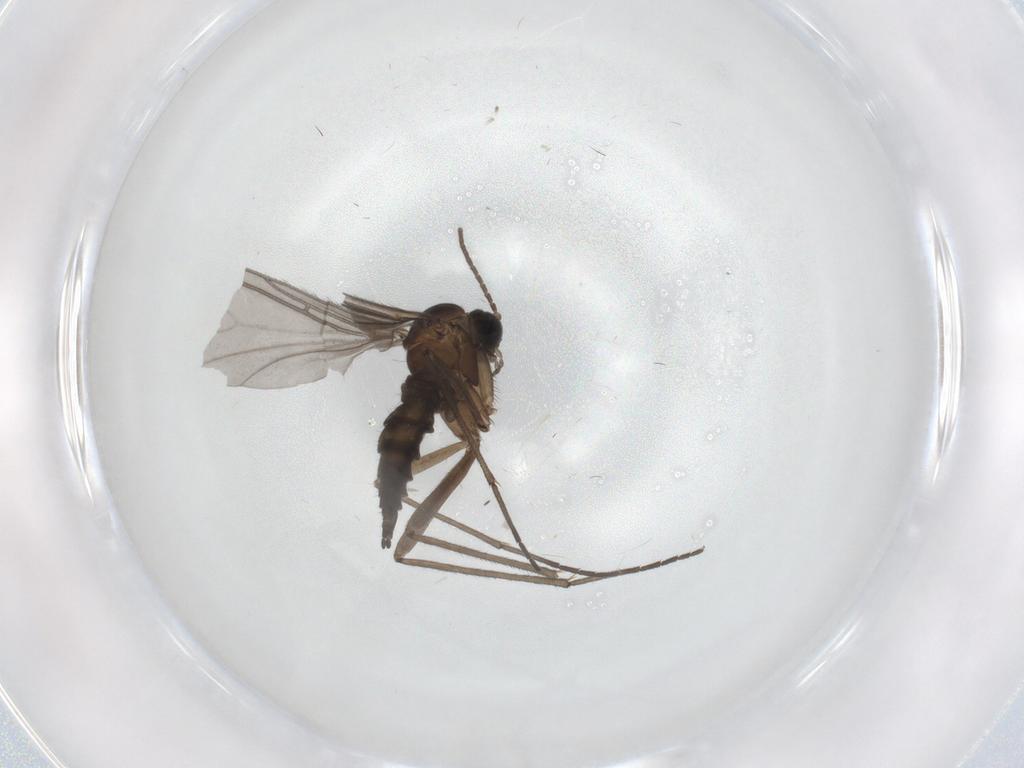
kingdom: Animalia
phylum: Arthropoda
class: Insecta
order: Diptera
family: Sciaridae
